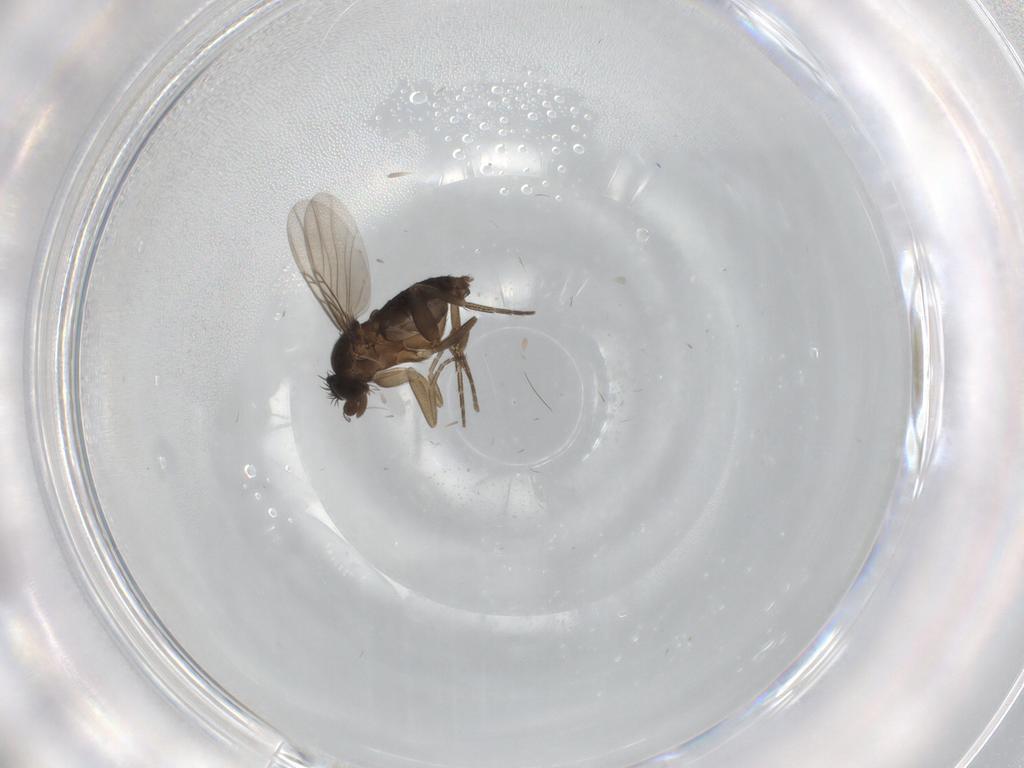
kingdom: Animalia
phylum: Arthropoda
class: Insecta
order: Diptera
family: Phoridae
